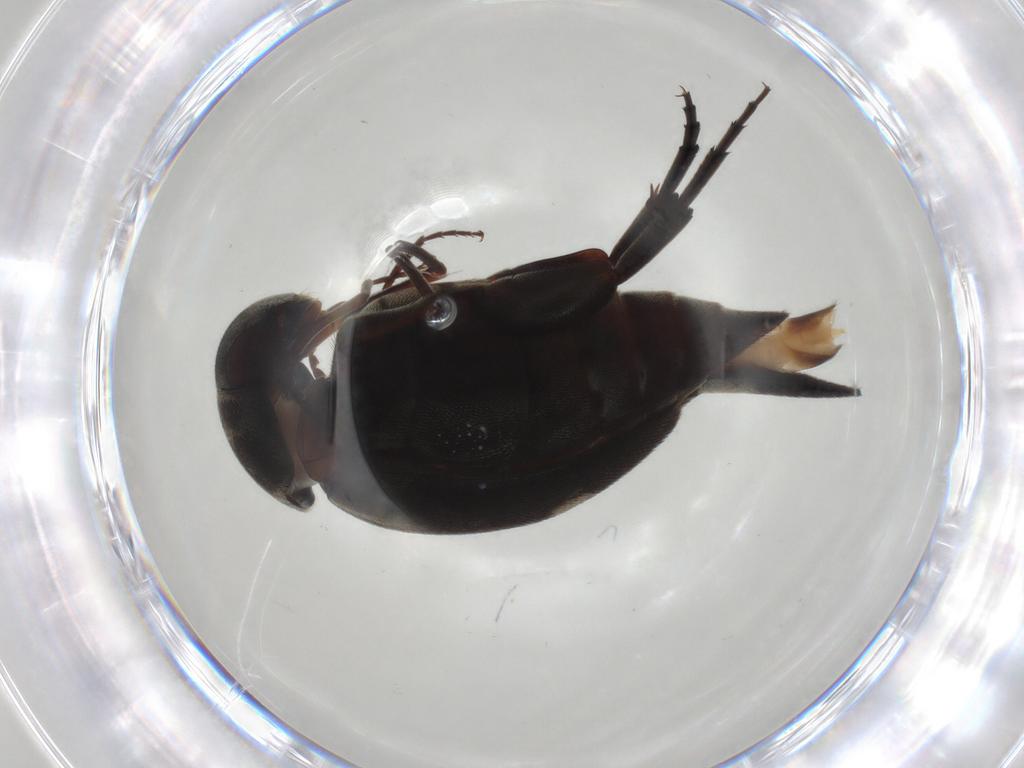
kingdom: Animalia
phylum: Arthropoda
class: Insecta
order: Coleoptera
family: Mordellidae
